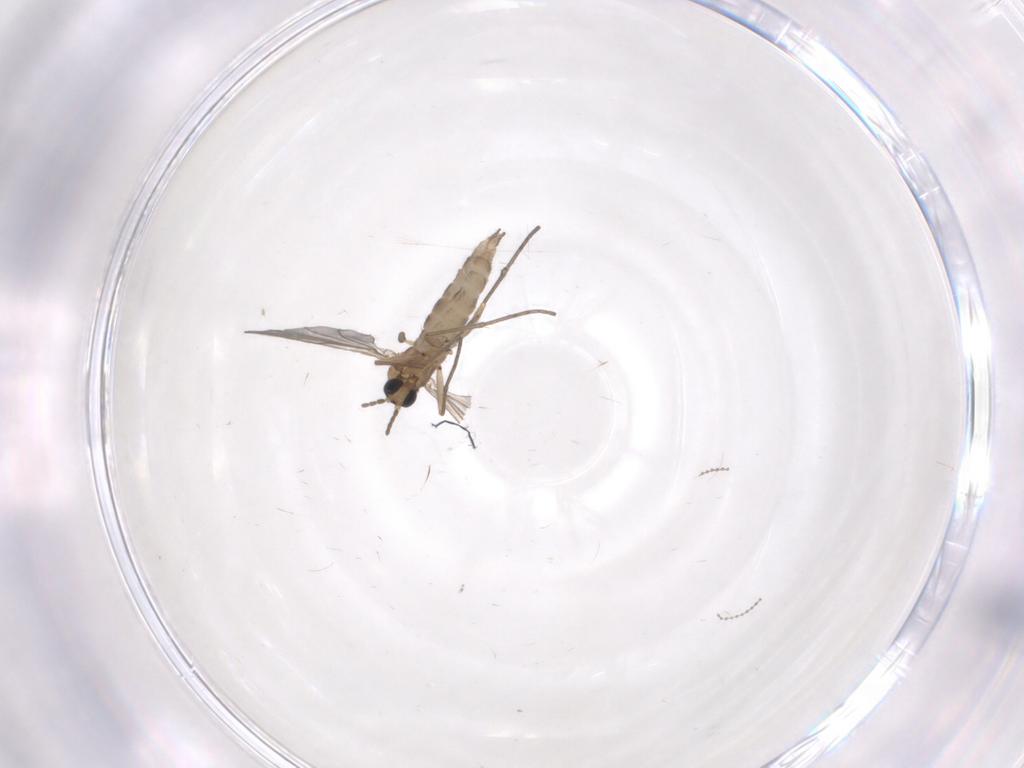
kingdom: Animalia
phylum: Arthropoda
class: Insecta
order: Diptera
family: Sciaridae
